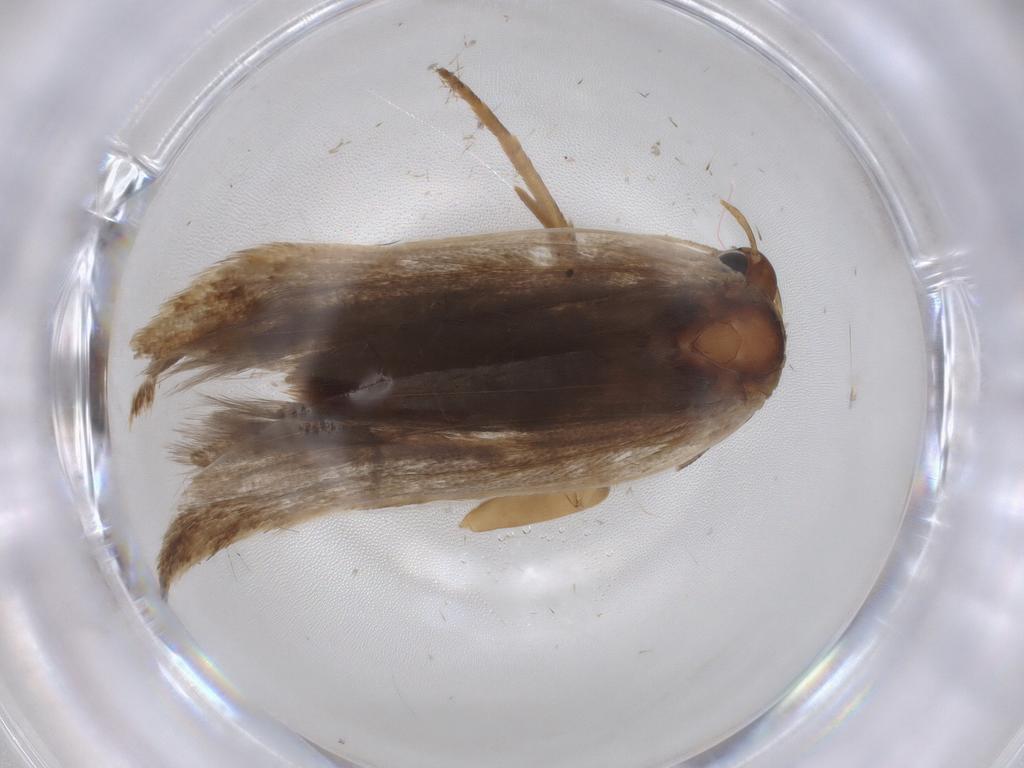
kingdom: Animalia
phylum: Arthropoda
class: Insecta
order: Lepidoptera
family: Gelechiidae
